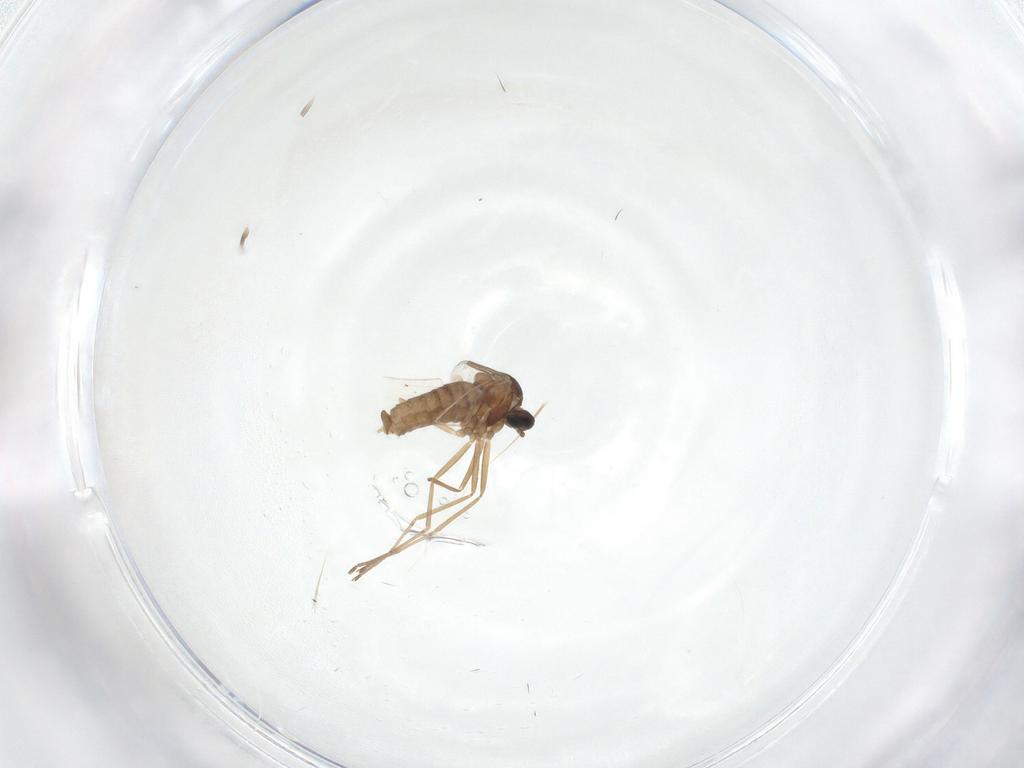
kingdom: Animalia
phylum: Arthropoda
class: Insecta
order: Diptera
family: Cecidomyiidae
